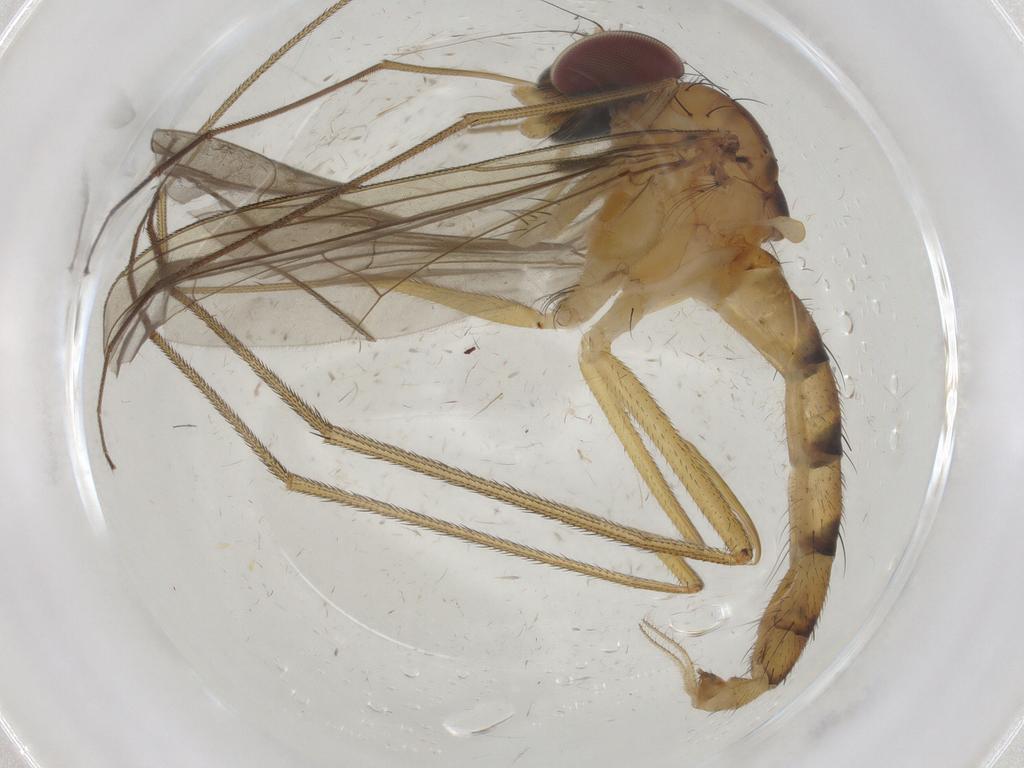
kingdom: Animalia
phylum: Arthropoda
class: Insecta
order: Diptera
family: Dolichopodidae
